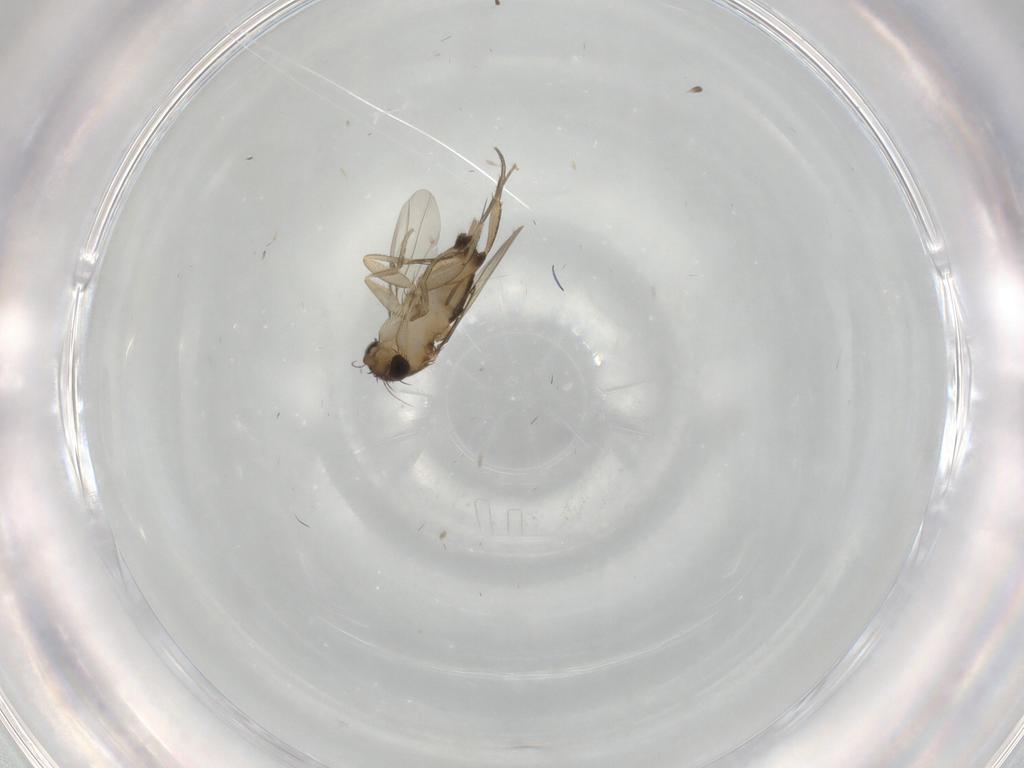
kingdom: Animalia
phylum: Arthropoda
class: Insecta
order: Diptera
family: Phoridae
